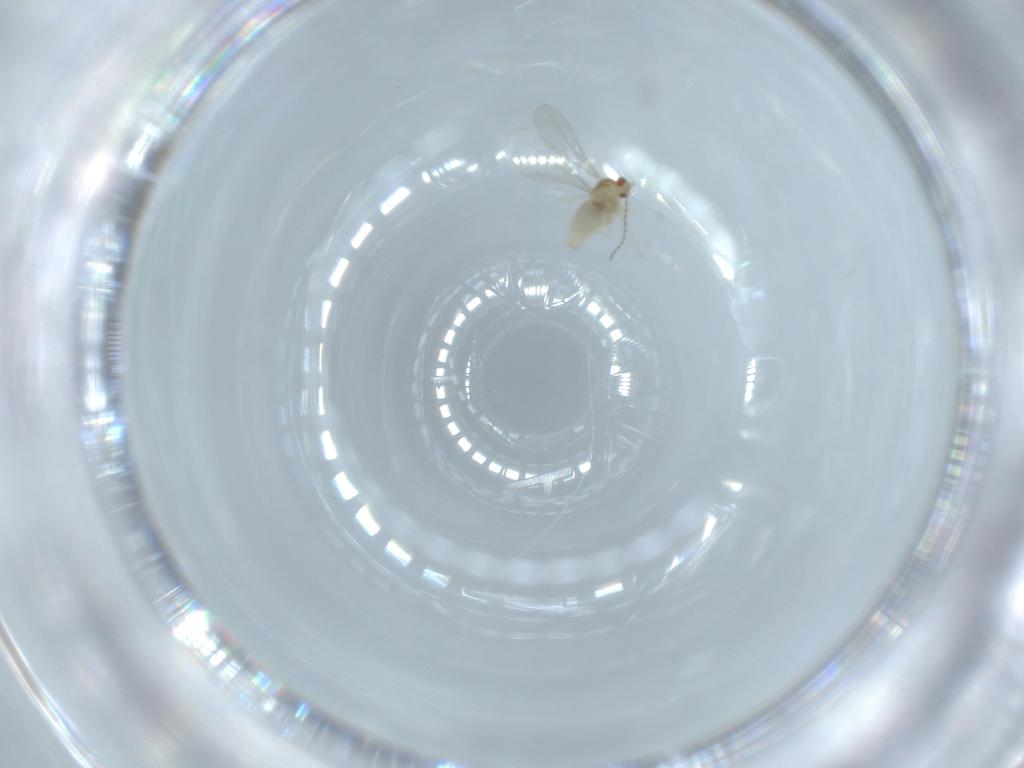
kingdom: Animalia
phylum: Arthropoda
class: Insecta
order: Diptera
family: Cecidomyiidae
